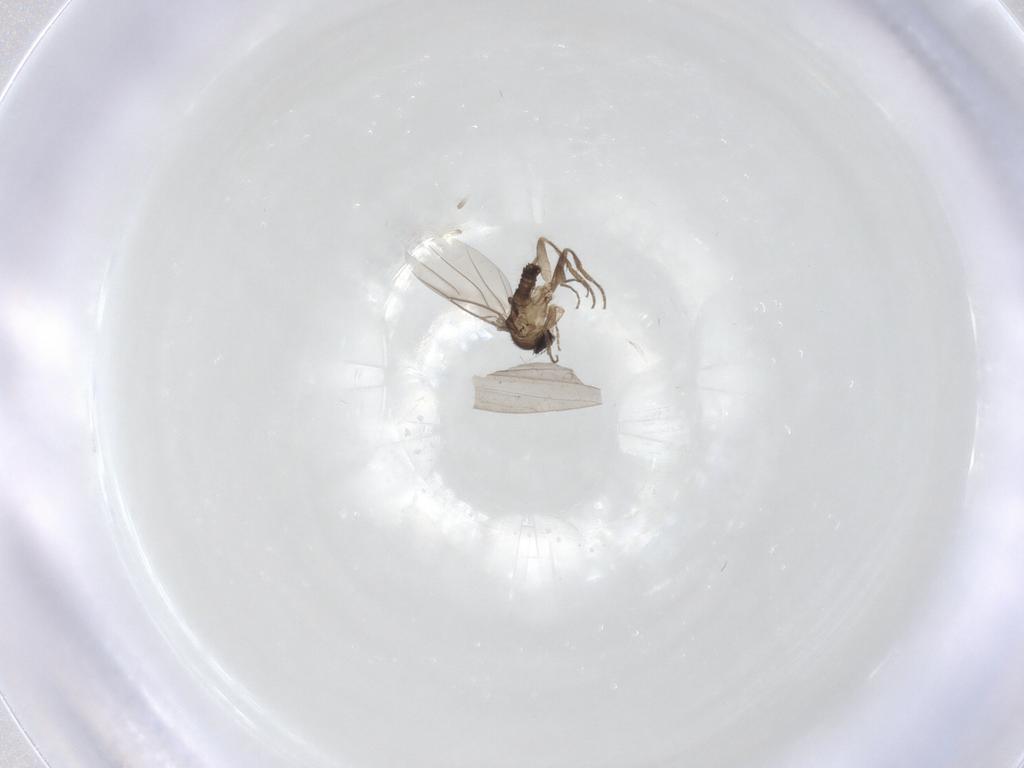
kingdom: Animalia
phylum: Arthropoda
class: Insecta
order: Diptera
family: Limoniidae
